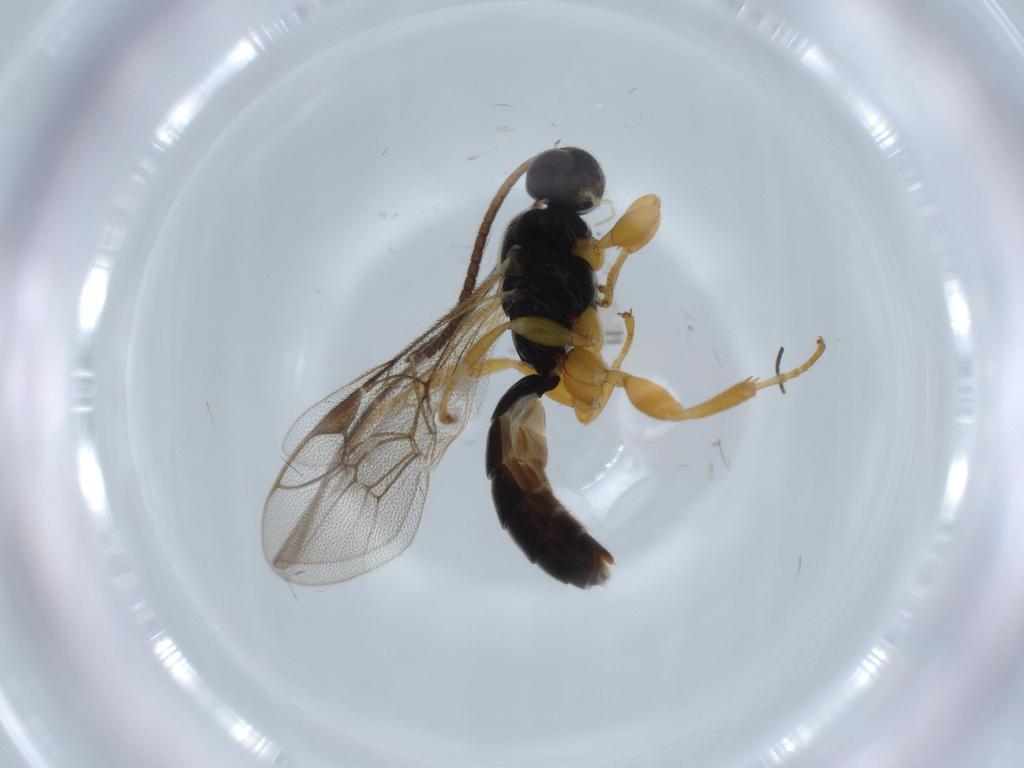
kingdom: Animalia
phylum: Arthropoda
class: Insecta
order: Hymenoptera
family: Ichneumonidae
